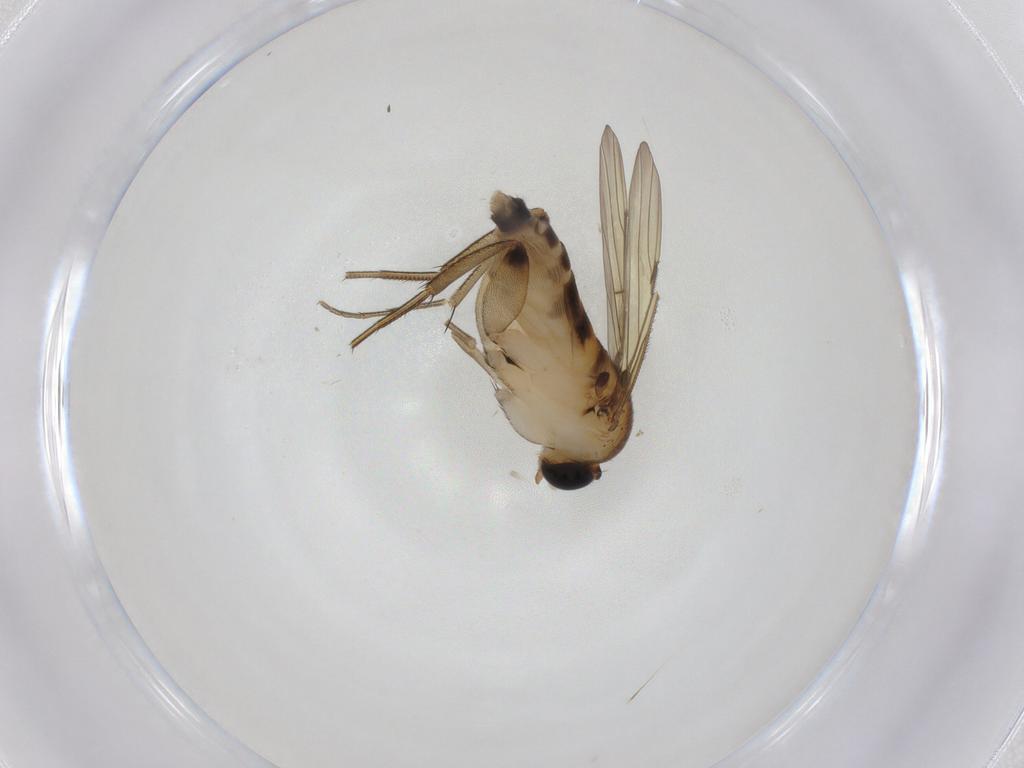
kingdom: Animalia
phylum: Arthropoda
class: Insecta
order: Diptera
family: Phoridae
